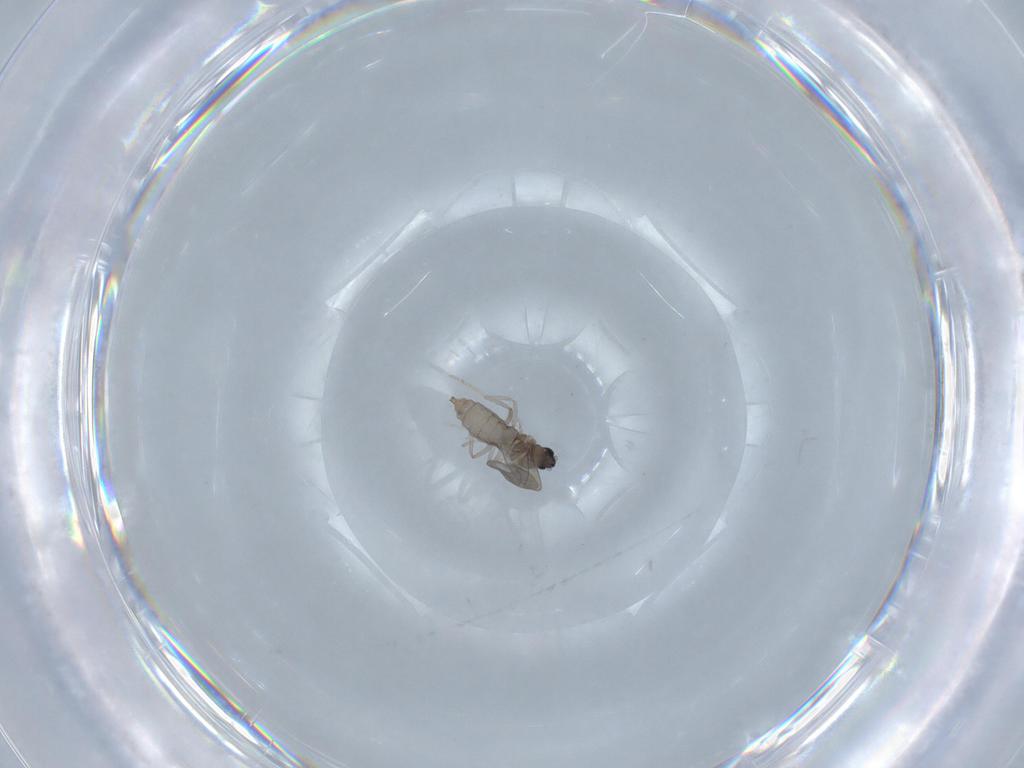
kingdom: Animalia
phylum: Arthropoda
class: Insecta
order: Diptera
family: Cecidomyiidae
